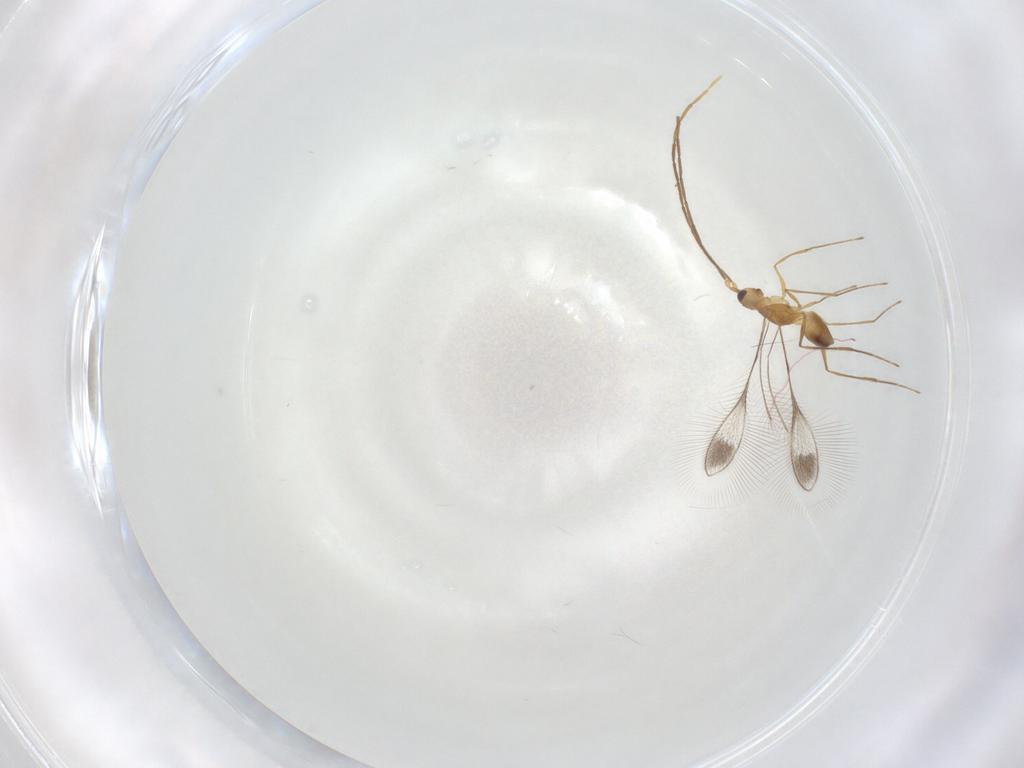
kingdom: Animalia
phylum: Arthropoda
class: Insecta
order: Hymenoptera
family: Mymaridae
